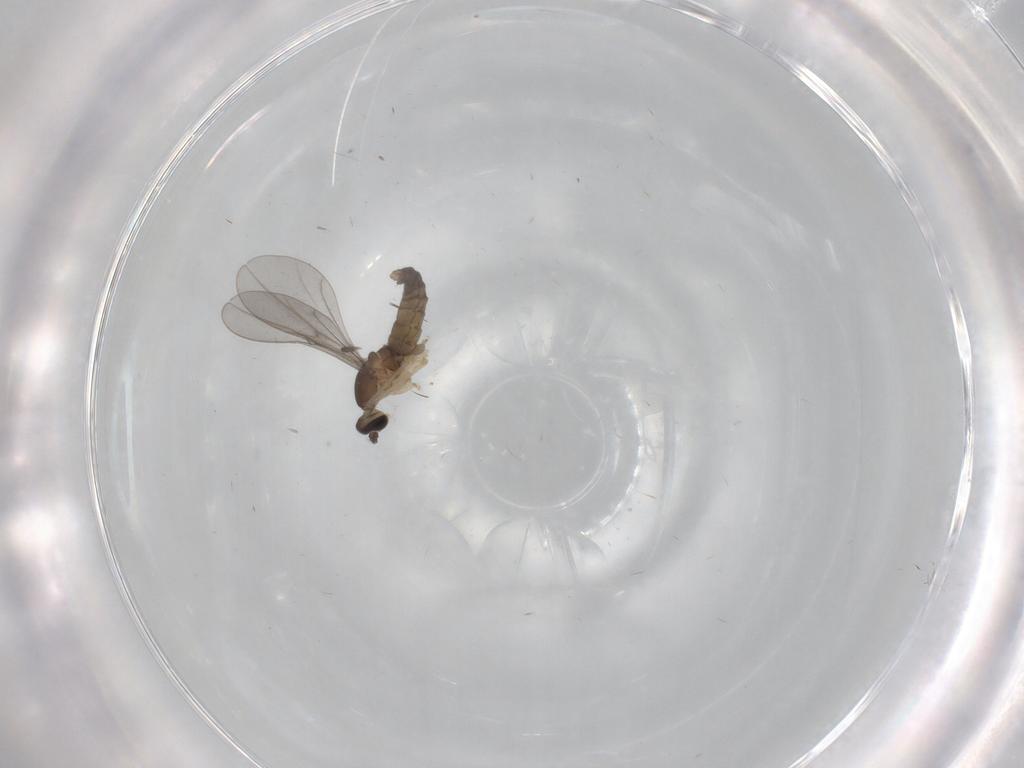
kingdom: Animalia
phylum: Arthropoda
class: Insecta
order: Diptera
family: Cecidomyiidae
